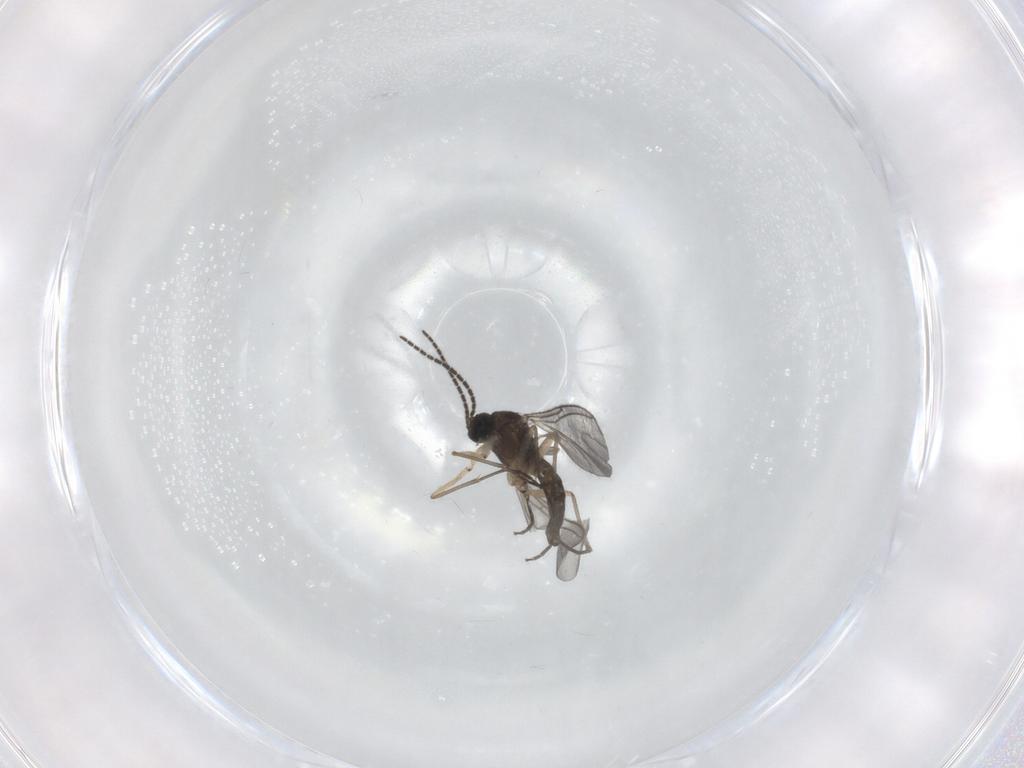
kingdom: Animalia
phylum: Arthropoda
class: Insecta
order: Diptera
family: Sciaridae
